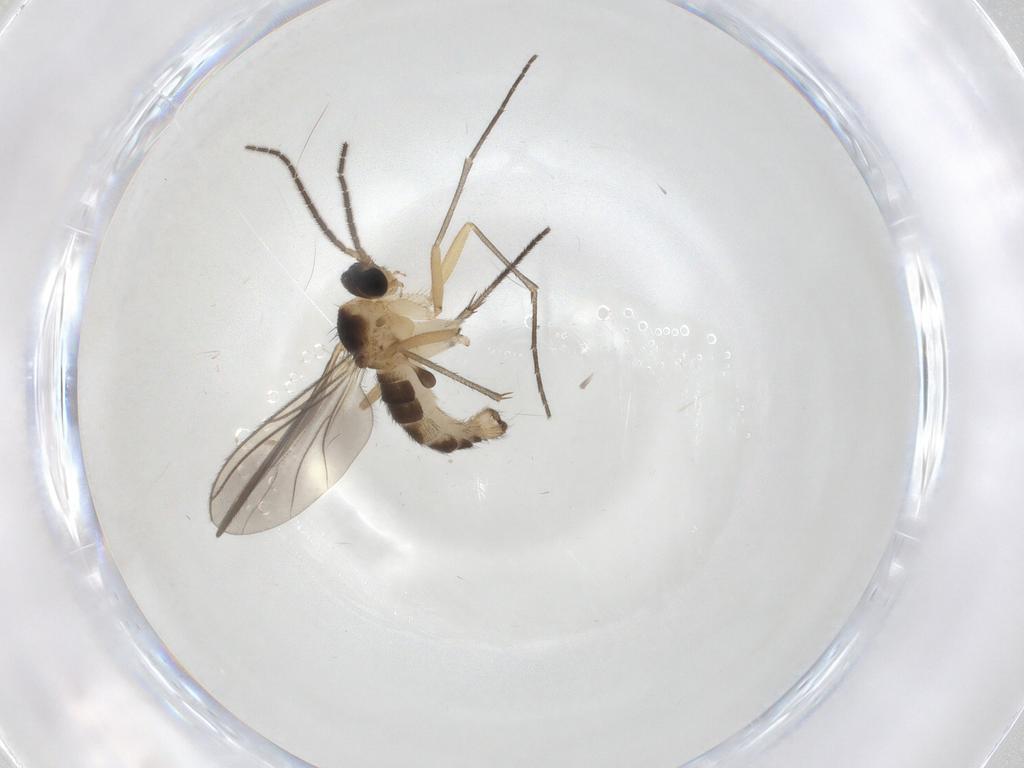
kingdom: Animalia
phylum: Arthropoda
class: Insecta
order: Diptera
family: Sciaridae
